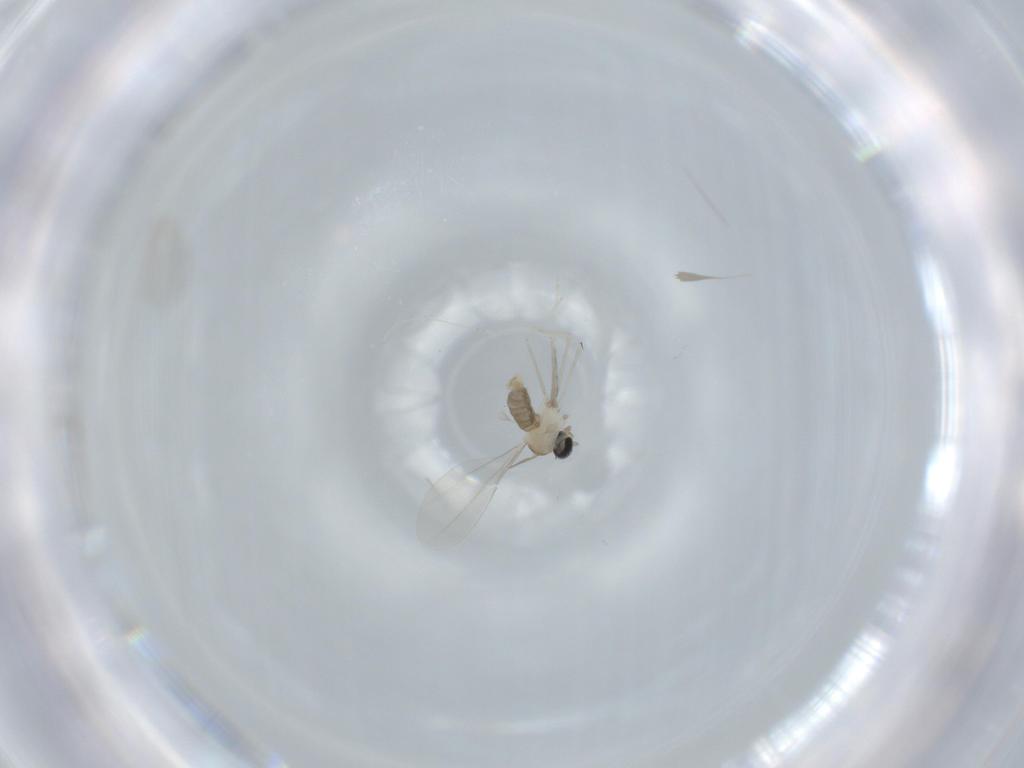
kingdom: Animalia
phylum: Arthropoda
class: Insecta
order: Diptera
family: Cecidomyiidae
